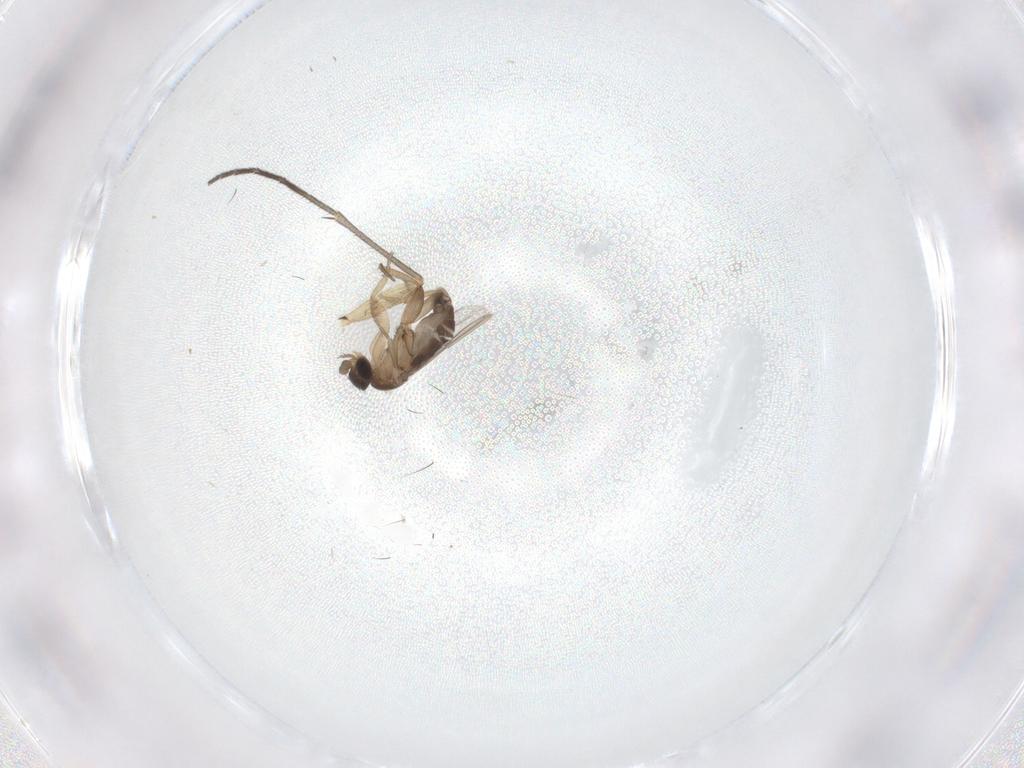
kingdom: Animalia
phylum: Arthropoda
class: Insecta
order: Diptera
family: Phoridae
